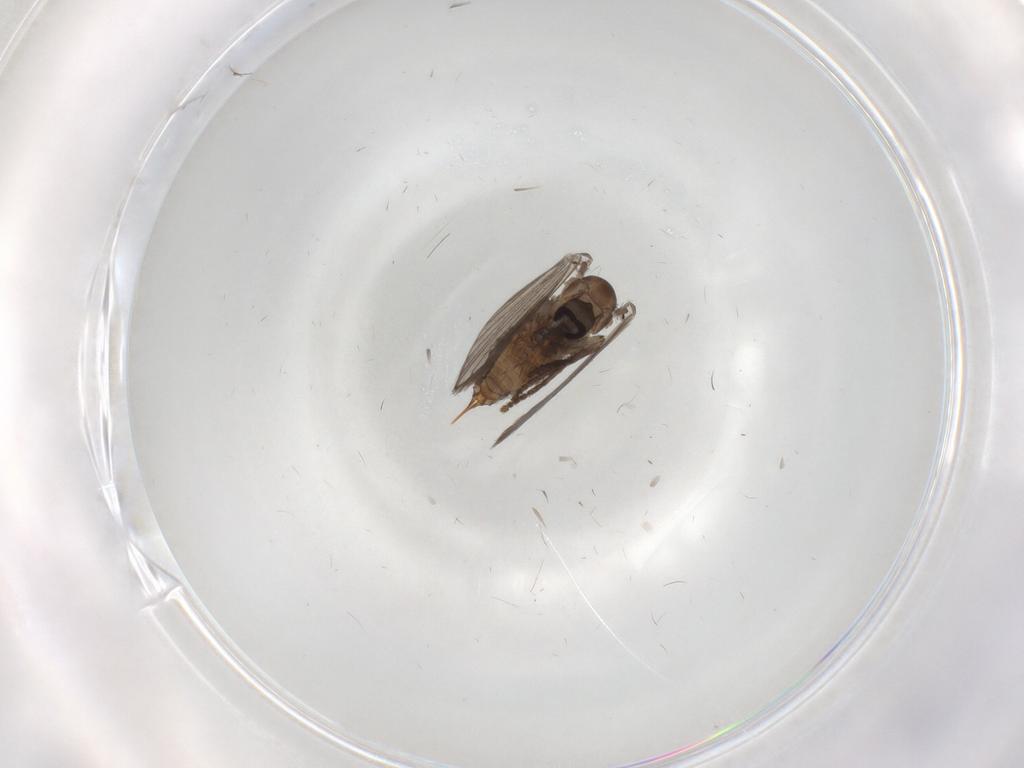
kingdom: Animalia
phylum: Arthropoda
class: Insecta
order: Diptera
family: Psychodidae
